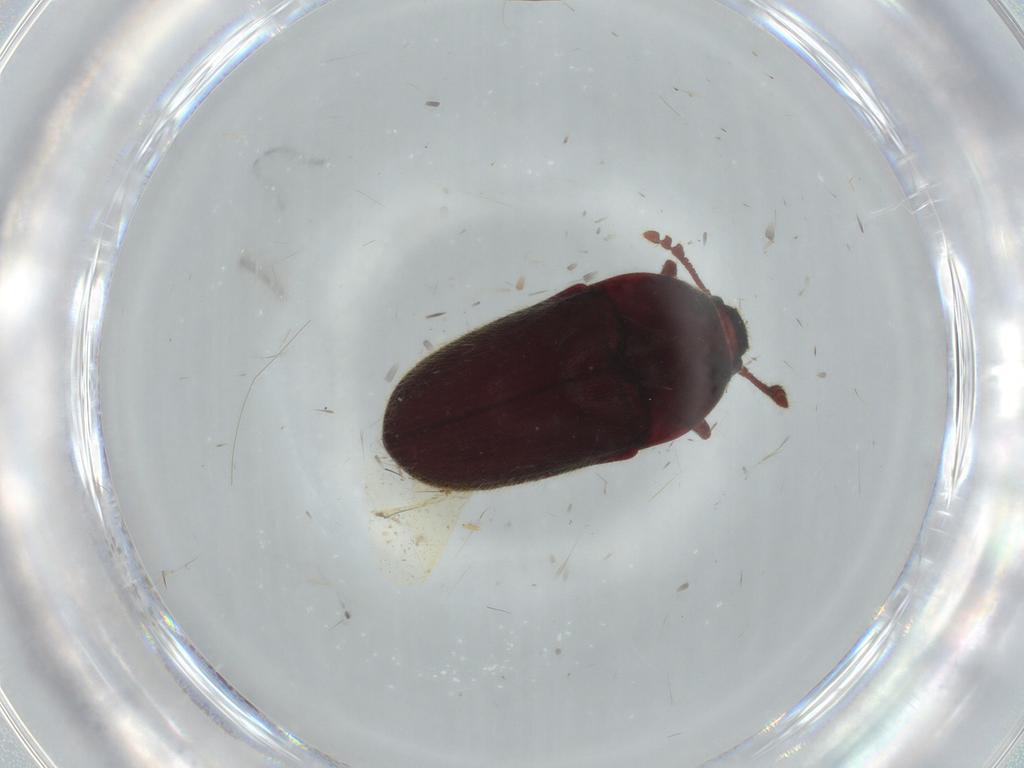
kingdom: Animalia
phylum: Arthropoda
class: Insecta
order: Coleoptera
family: Throscidae
